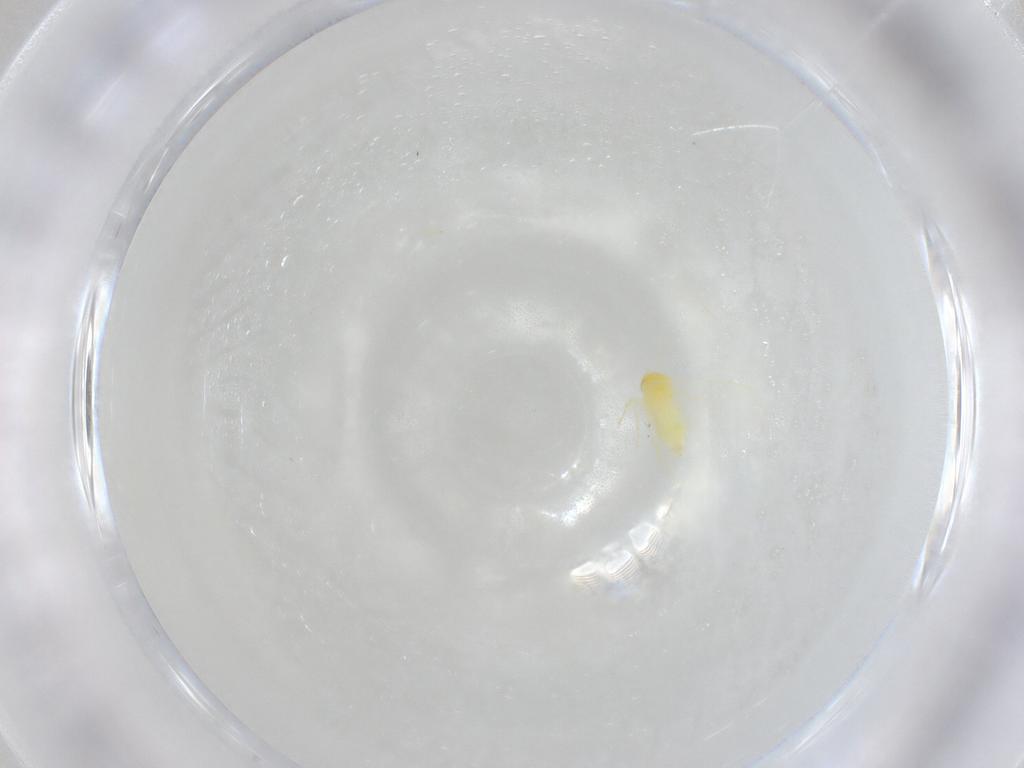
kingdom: Animalia
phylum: Arthropoda
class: Insecta
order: Hemiptera
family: Aleyrodidae
